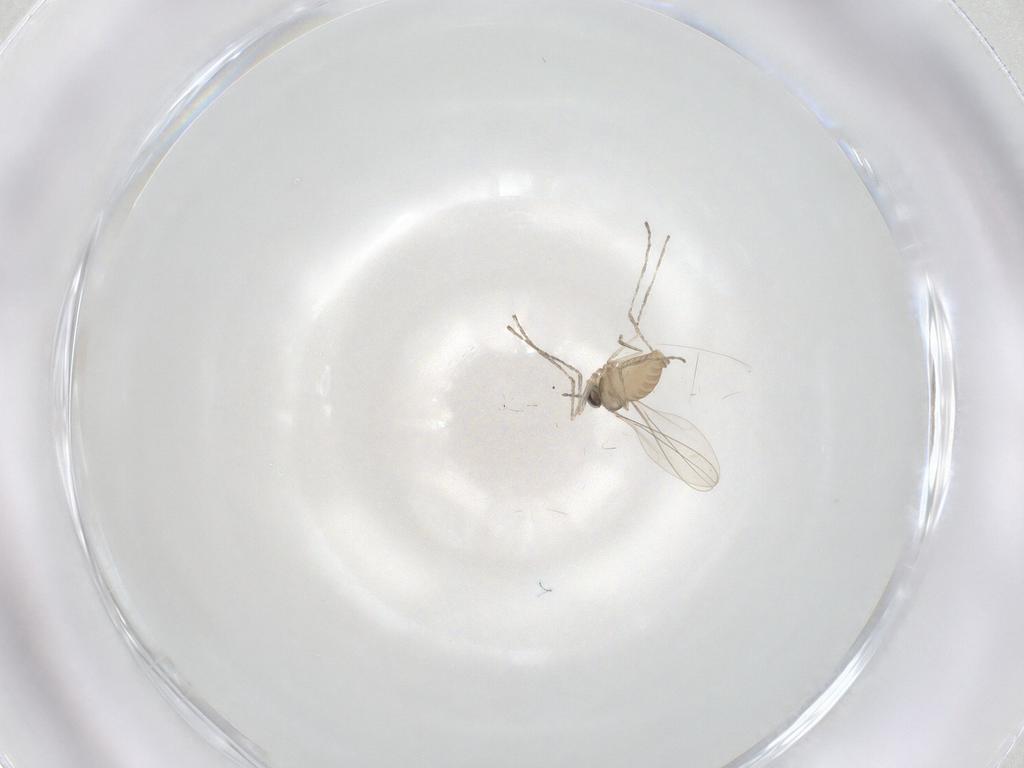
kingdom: Animalia
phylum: Arthropoda
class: Insecta
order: Diptera
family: Cecidomyiidae
